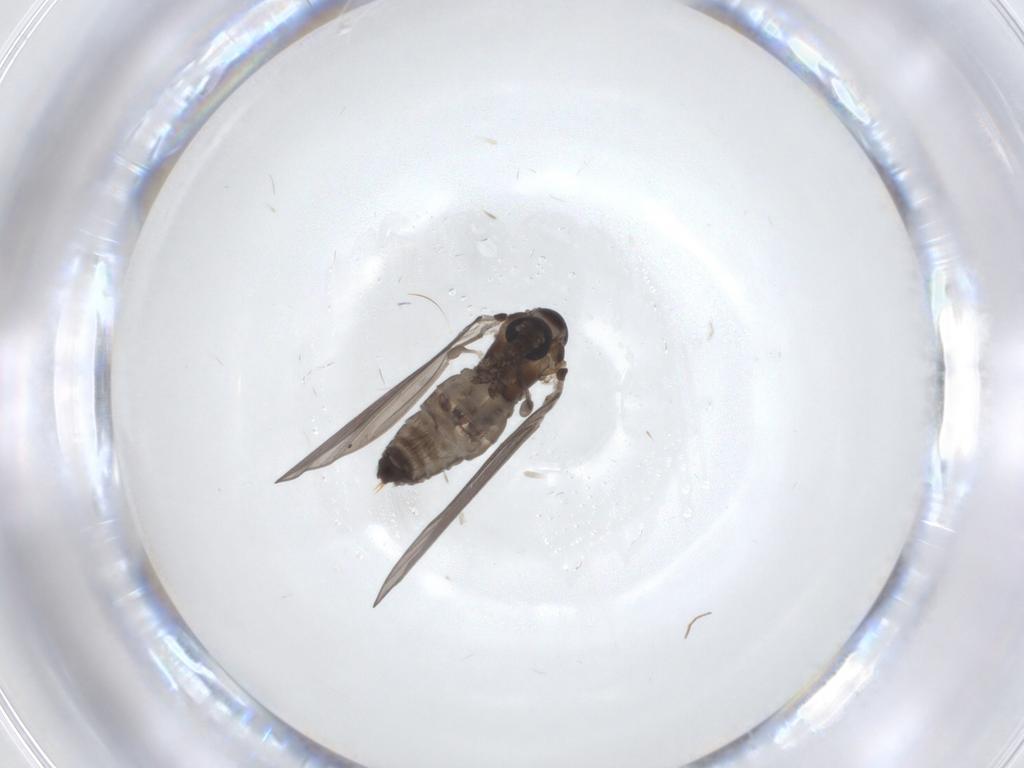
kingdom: Animalia
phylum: Arthropoda
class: Insecta
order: Diptera
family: Psychodidae
